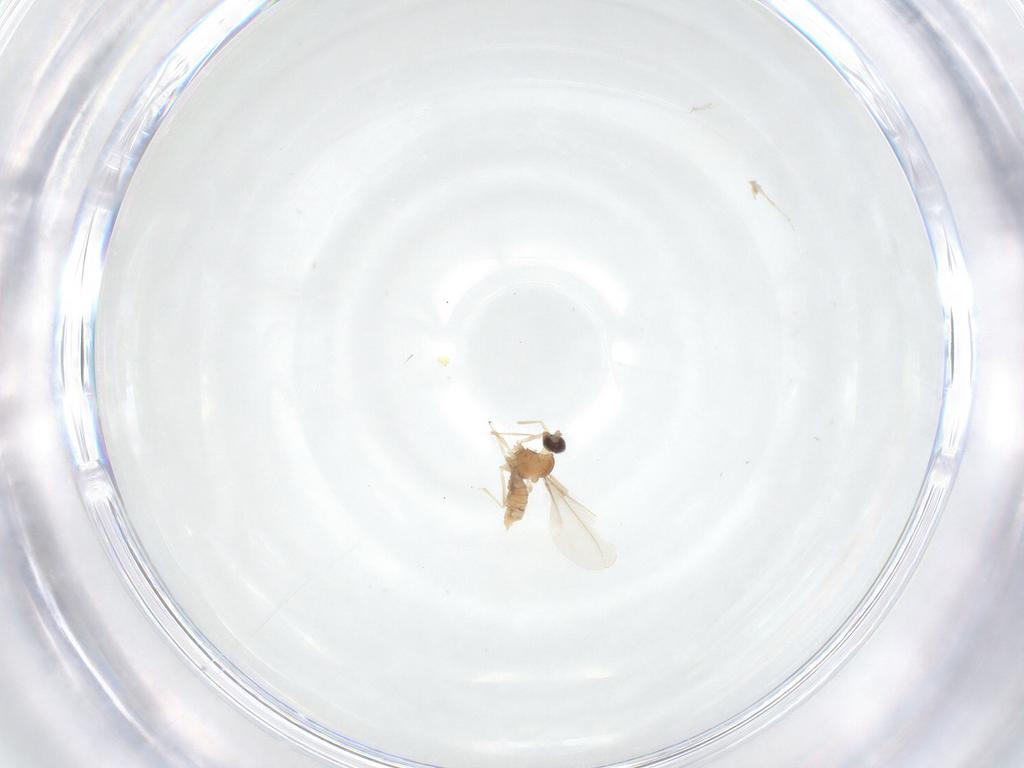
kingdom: Animalia
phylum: Arthropoda
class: Insecta
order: Diptera
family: Cecidomyiidae
